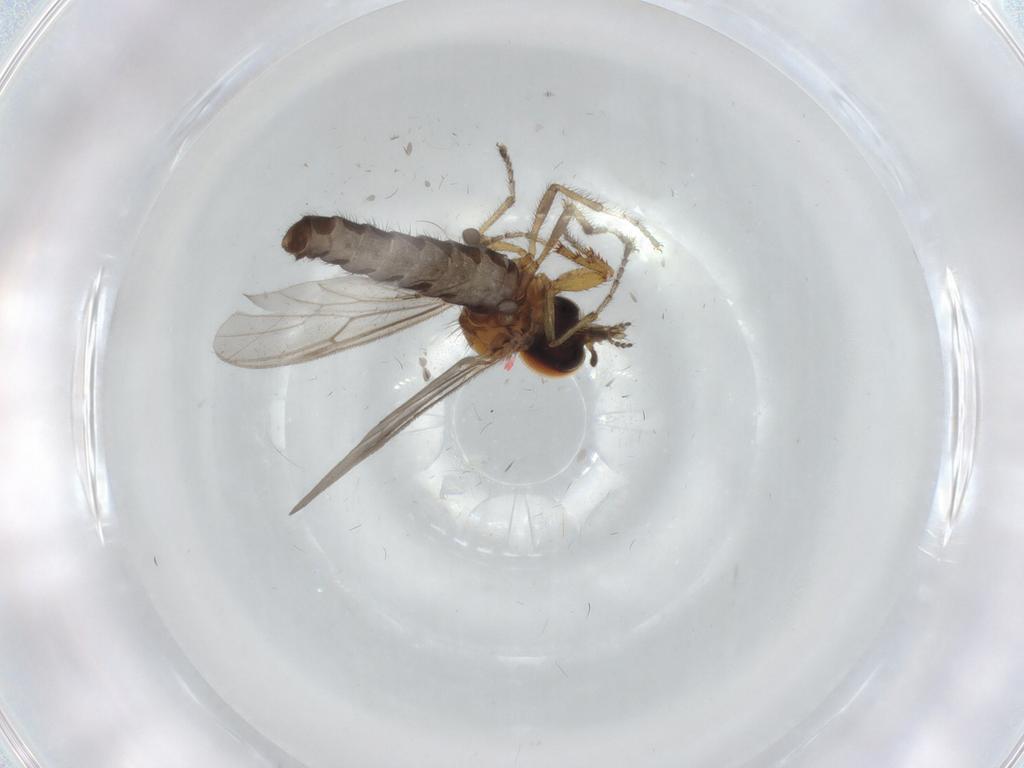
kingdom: Animalia
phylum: Arthropoda
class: Insecta
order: Diptera
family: Bibionidae
